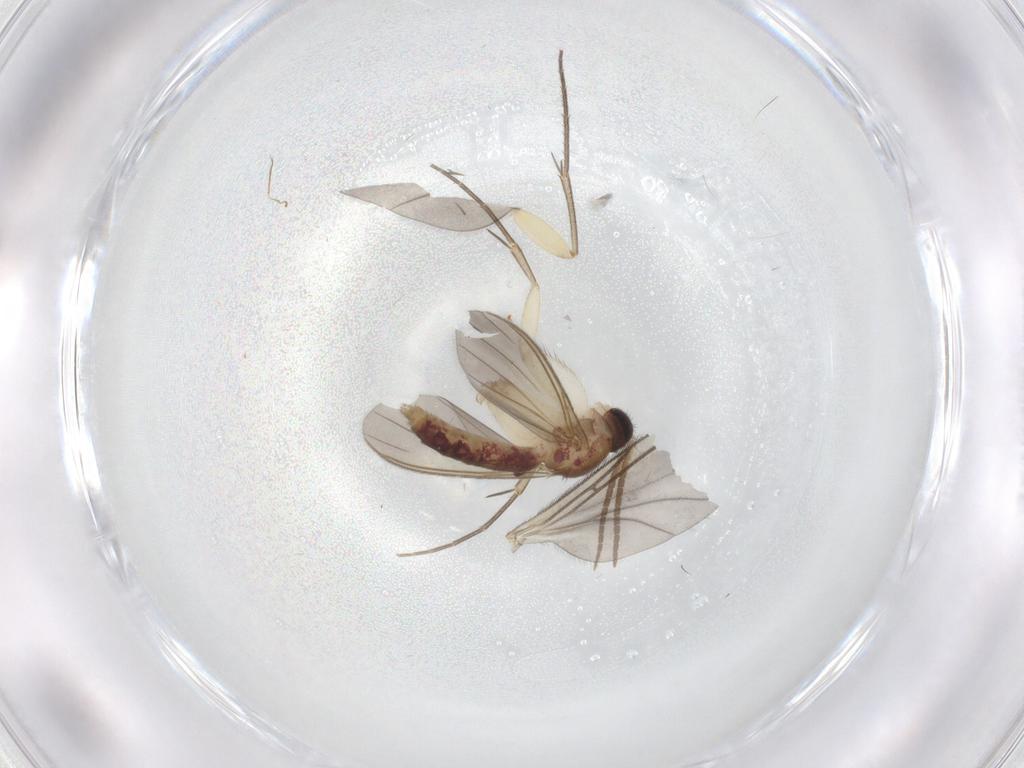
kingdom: Animalia
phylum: Arthropoda
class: Insecta
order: Diptera
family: Mycetophilidae
